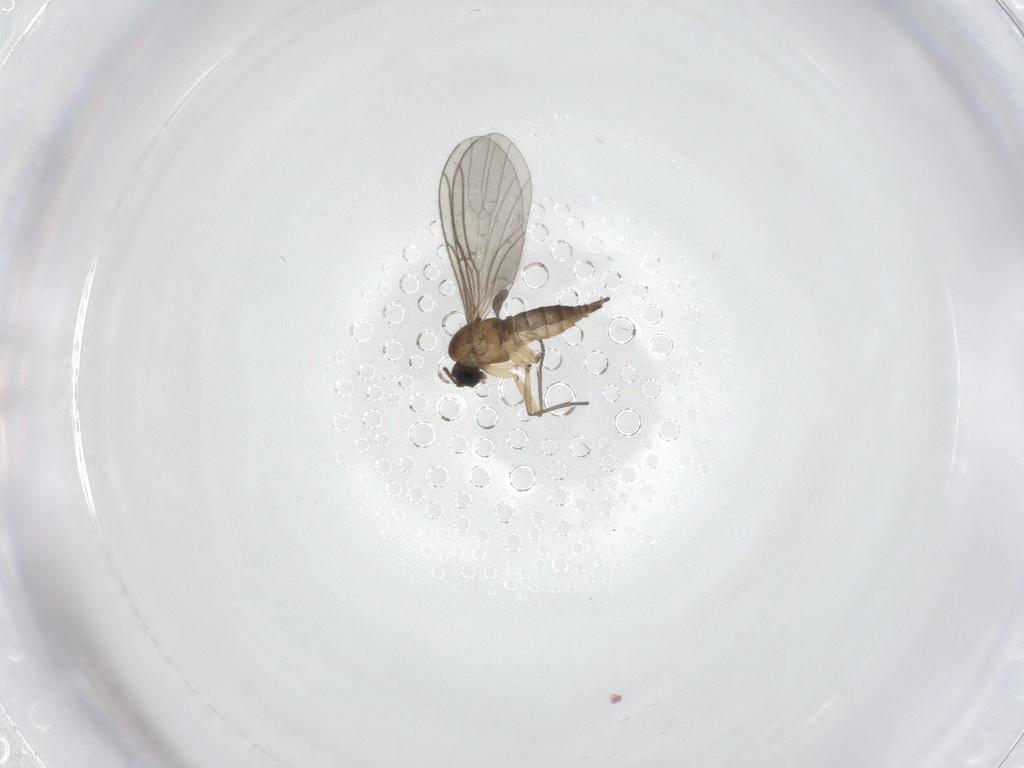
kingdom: Animalia
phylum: Arthropoda
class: Insecta
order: Diptera
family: Sciaridae
